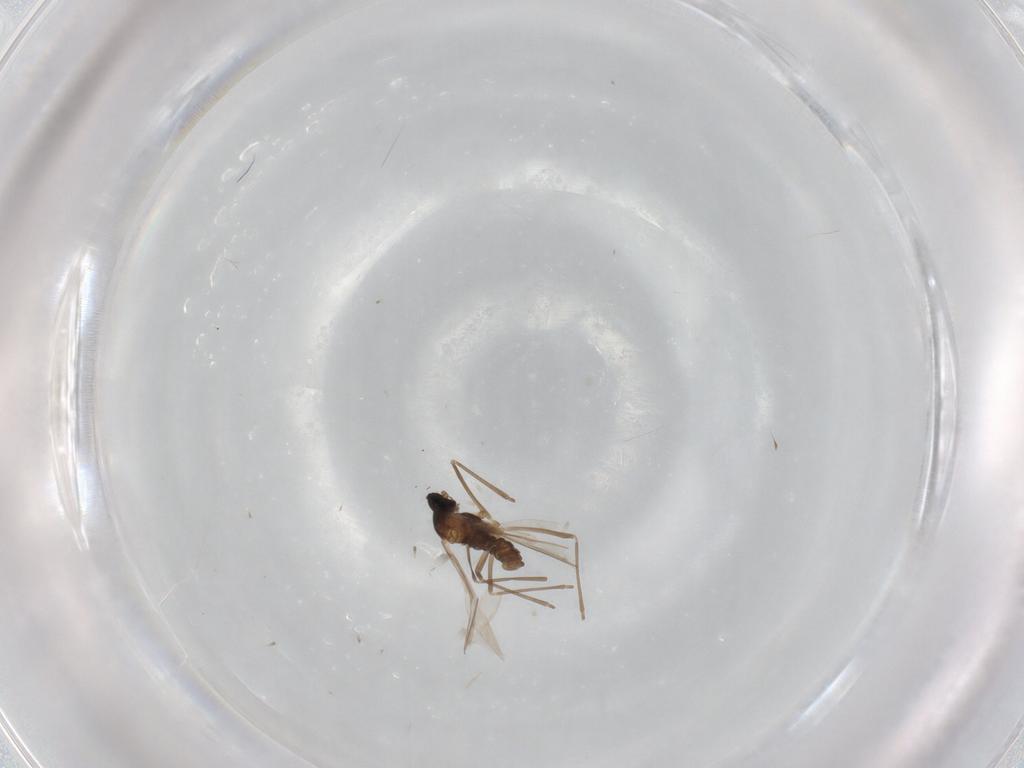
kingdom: Animalia
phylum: Arthropoda
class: Insecta
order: Diptera
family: Cecidomyiidae
